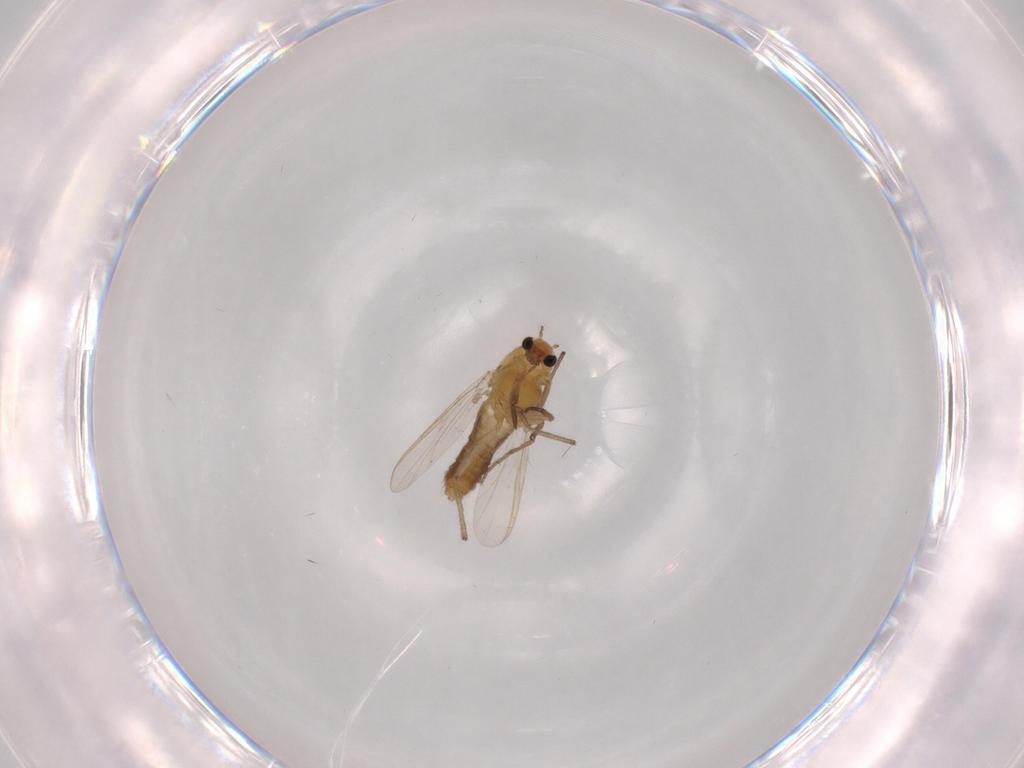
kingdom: Animalia
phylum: Arthropoda
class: Insecta
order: Diptera
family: Chironomidae
